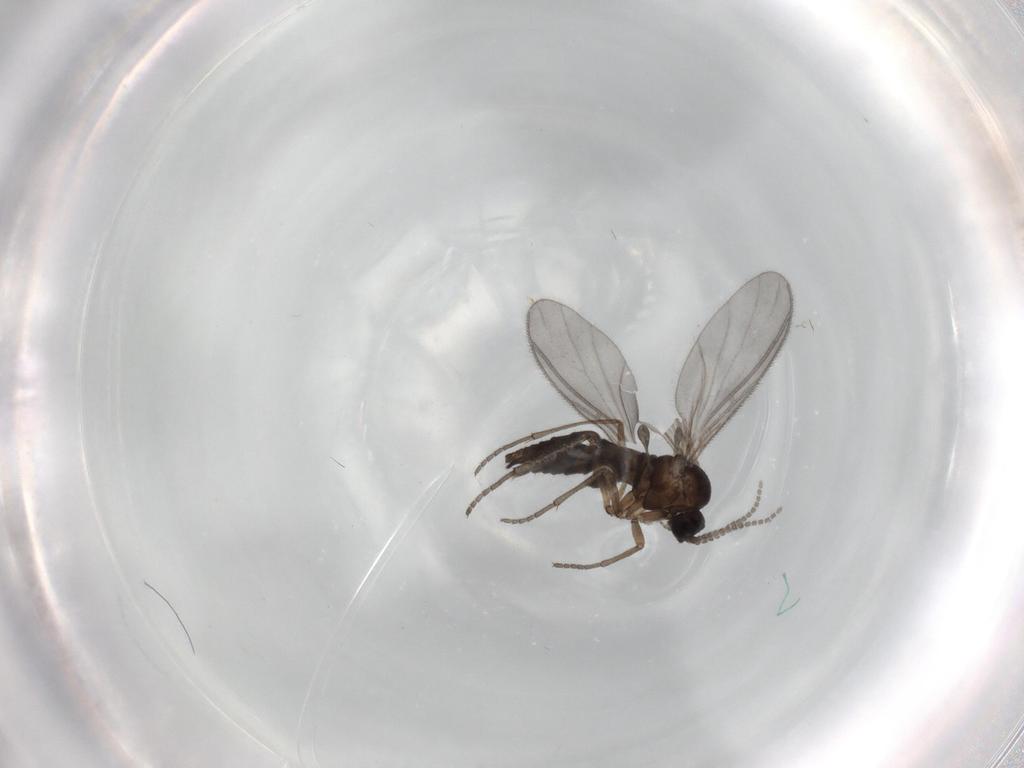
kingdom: Animalia
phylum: Arthropoda
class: Insecta
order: Diptera
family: Sciaridae
